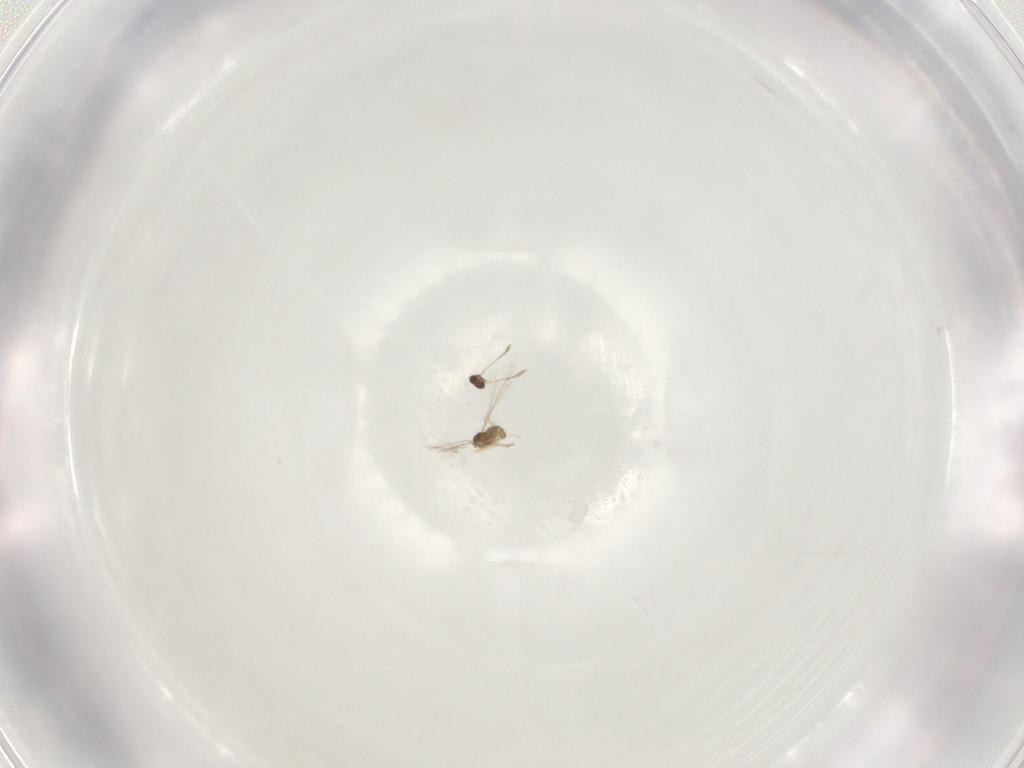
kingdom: Animalia
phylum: Arthropoda
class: Insecta
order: Hymenoptera
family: Mymaridae
